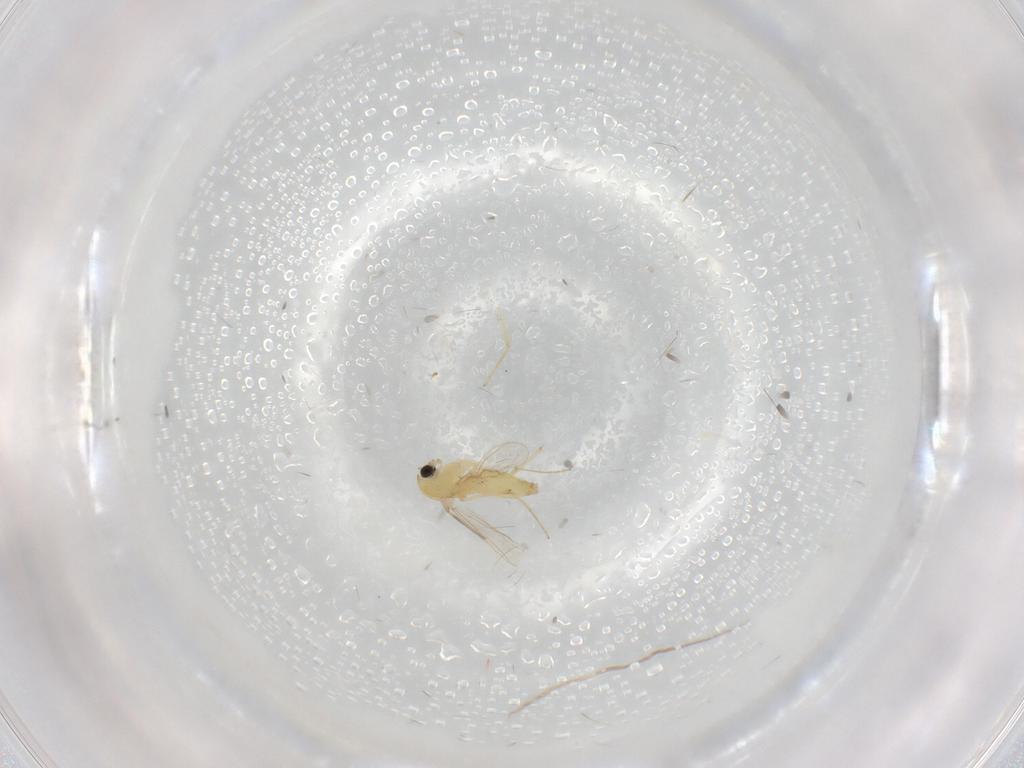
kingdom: Animalia
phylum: Arthropoda
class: Insecta
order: Diptera
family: Chironomidae
